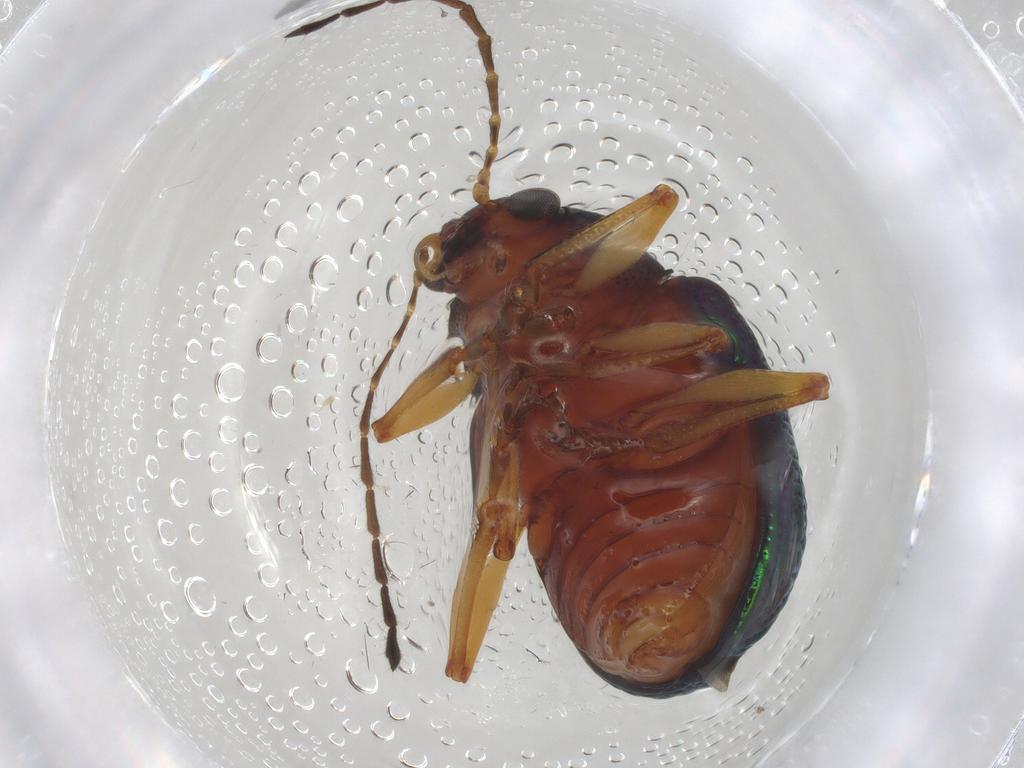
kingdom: Animalia
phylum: Arthropoda
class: Insecta
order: Coleoptera
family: Chrysomelidae
